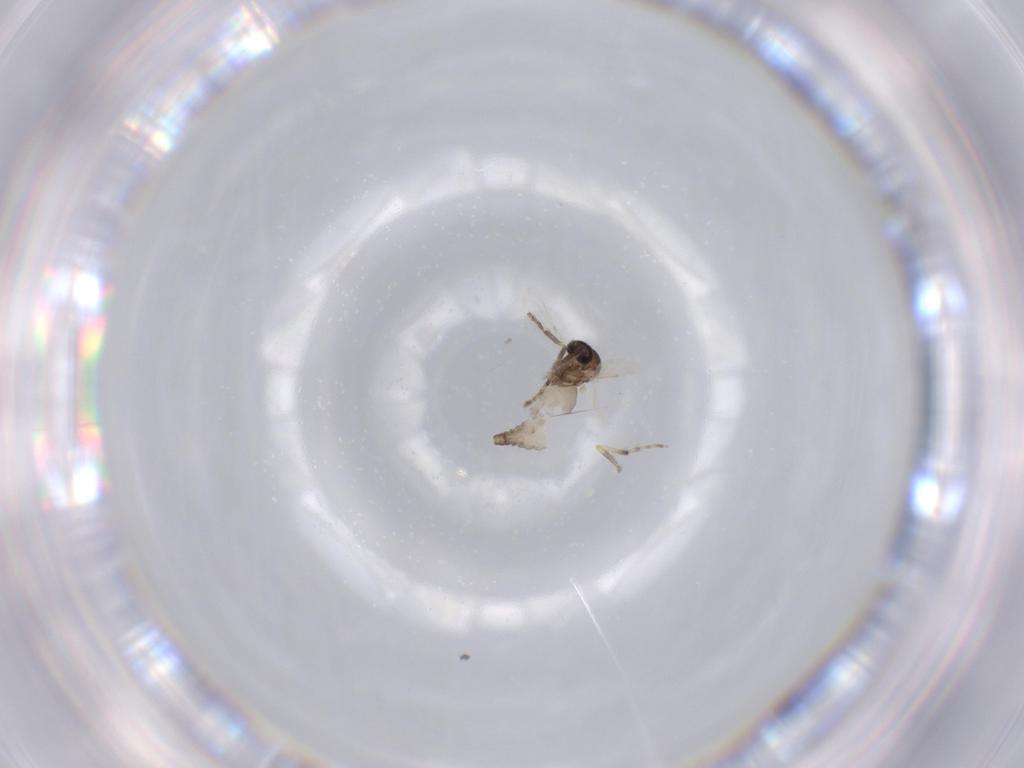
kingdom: Animalia
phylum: Arthropoda
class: Insecta
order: Diptera
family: Ceratopogonidae
